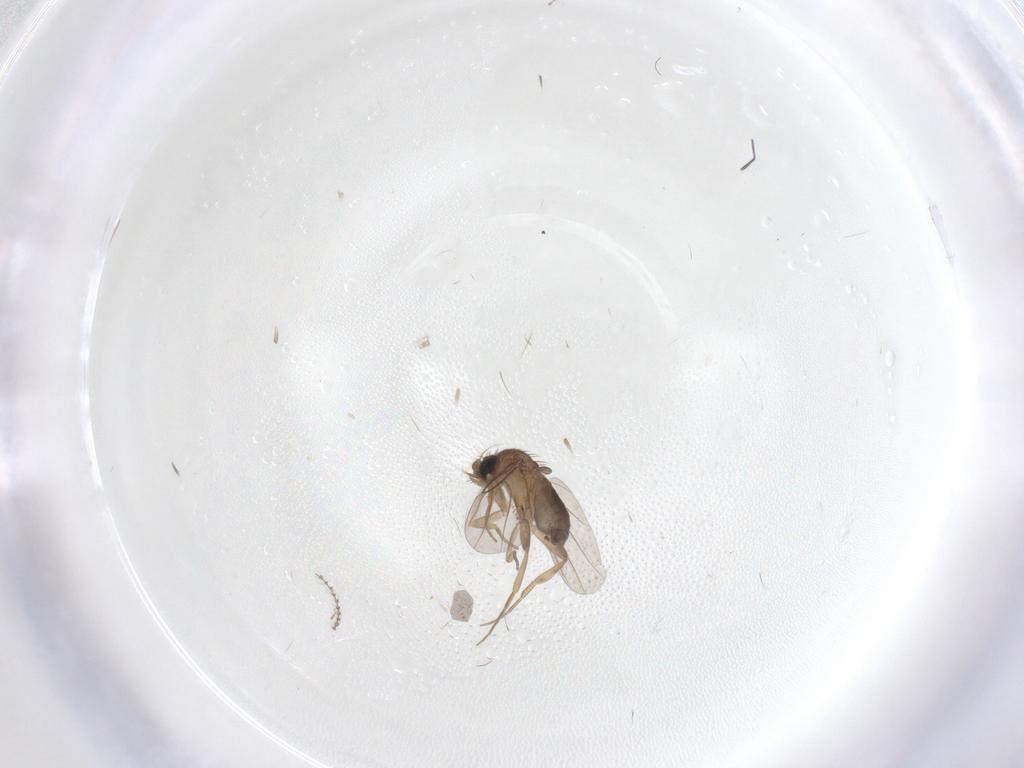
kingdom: Animalia
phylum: Arthropoda
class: Insecta
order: Diptera
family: Phoridae
